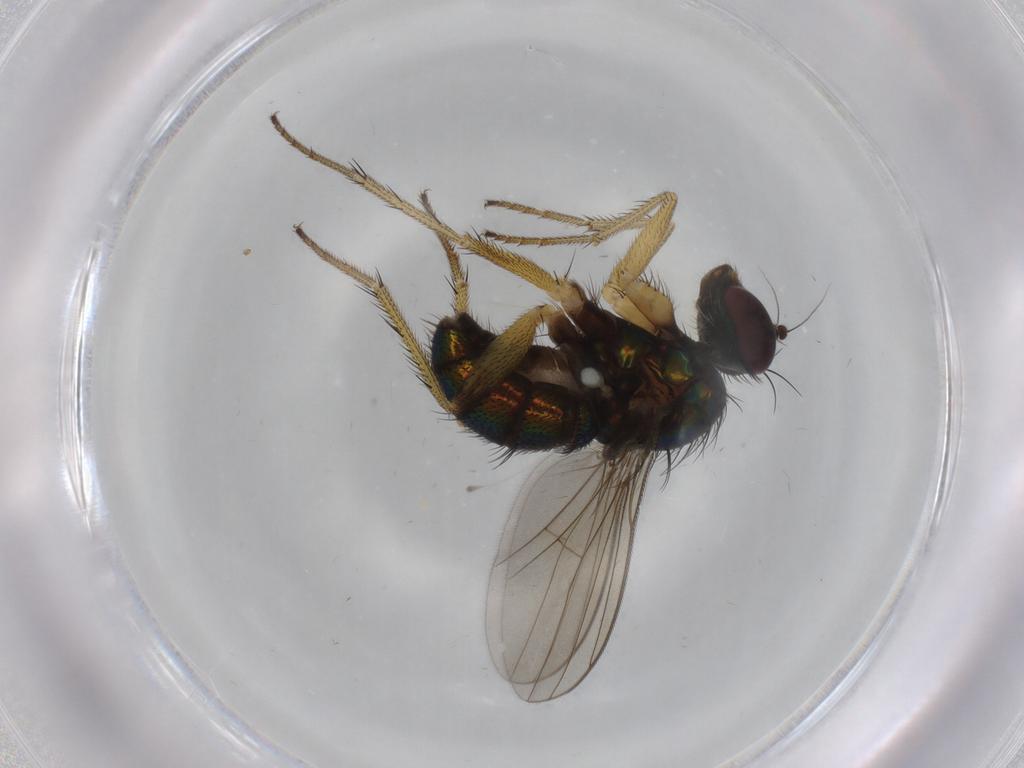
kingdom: Animalia
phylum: Arthropoda
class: Insecta
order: Diptera
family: Dolichopodidae
